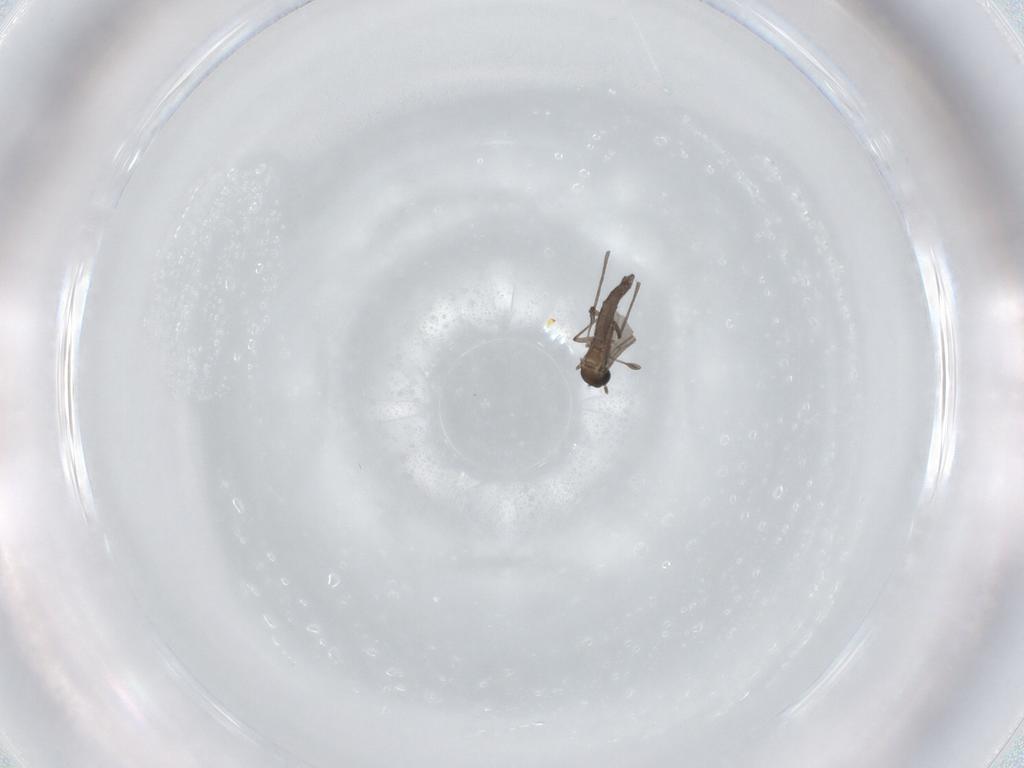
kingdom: Animalia
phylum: Arthropoda
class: Insecta
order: Diptera
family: Sciaridae
